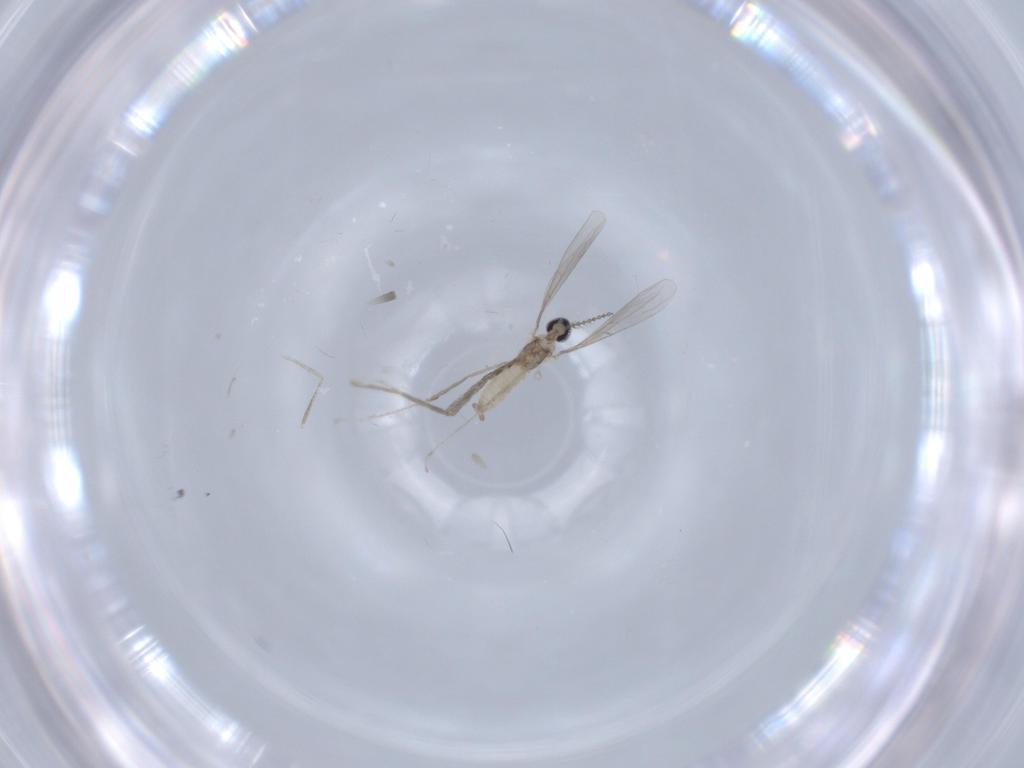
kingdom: Animalia
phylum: Arthropoda
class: Insecta
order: Diptera
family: Cecidomyiidae
